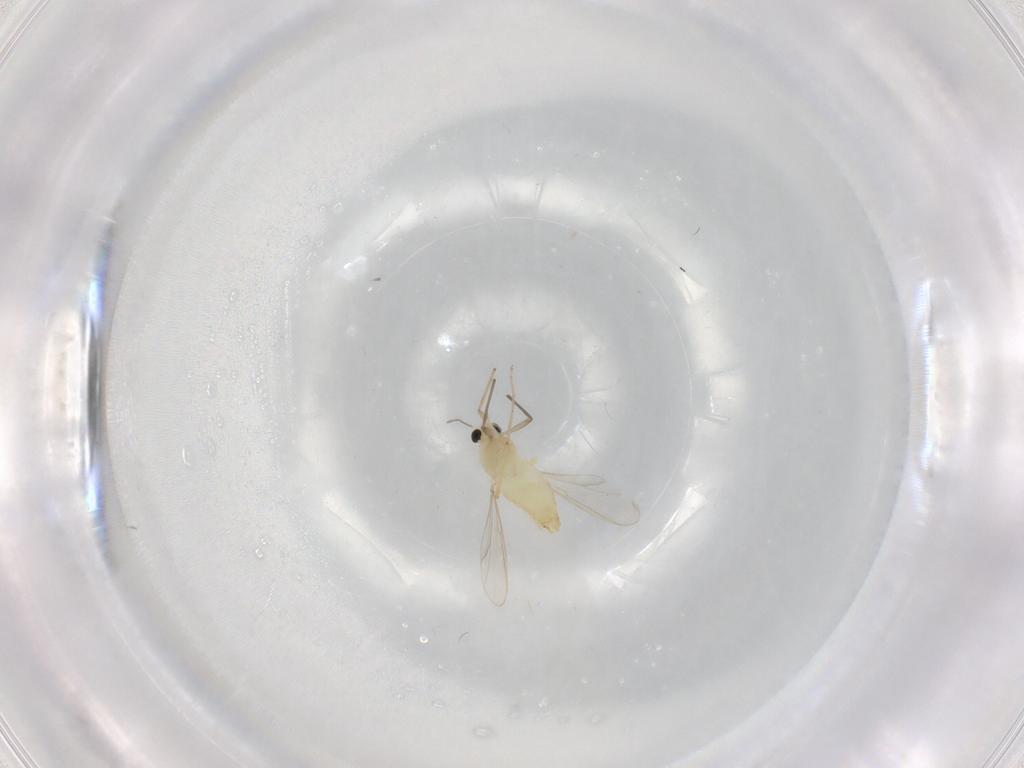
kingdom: Animalia
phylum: Arthropoda
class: Insecta
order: Diptera
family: Chironomidae
